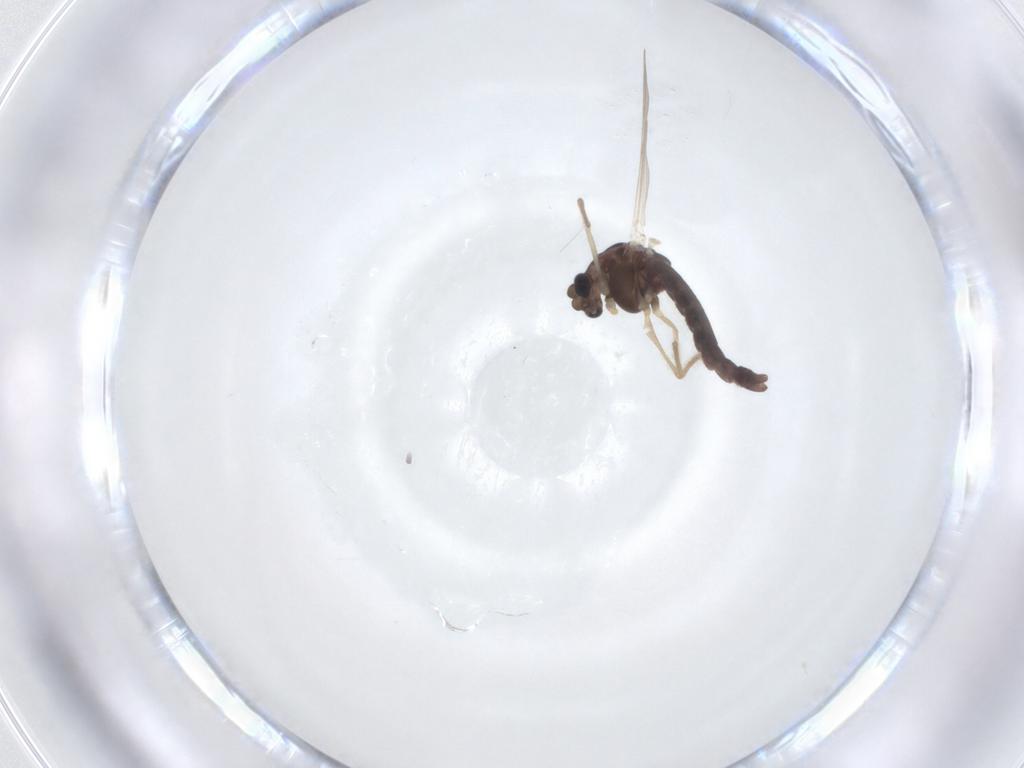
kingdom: Animalia
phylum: Arthropoda
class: Insecta
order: Diptera
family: Chironomidae
